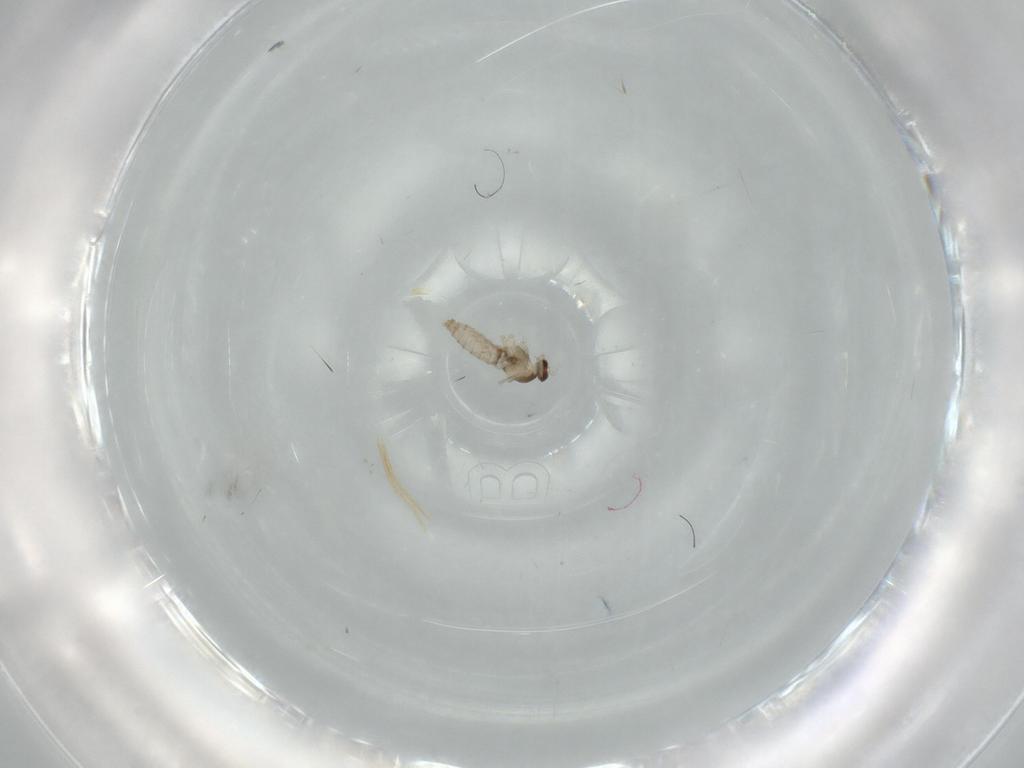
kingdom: Animalia
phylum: Arthropoda
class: Insecta
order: Diptera
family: Cecidomyiidae
